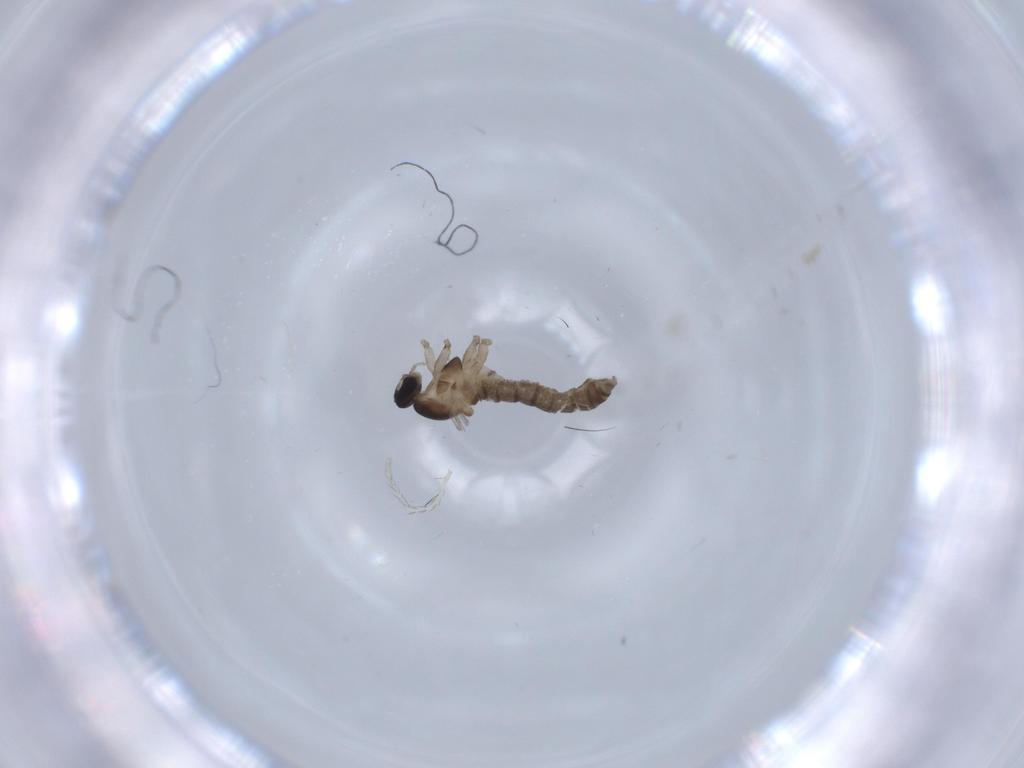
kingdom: Animalia
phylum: Arthropoda
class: Insecta
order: Diptera
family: Cecidomyiidae
